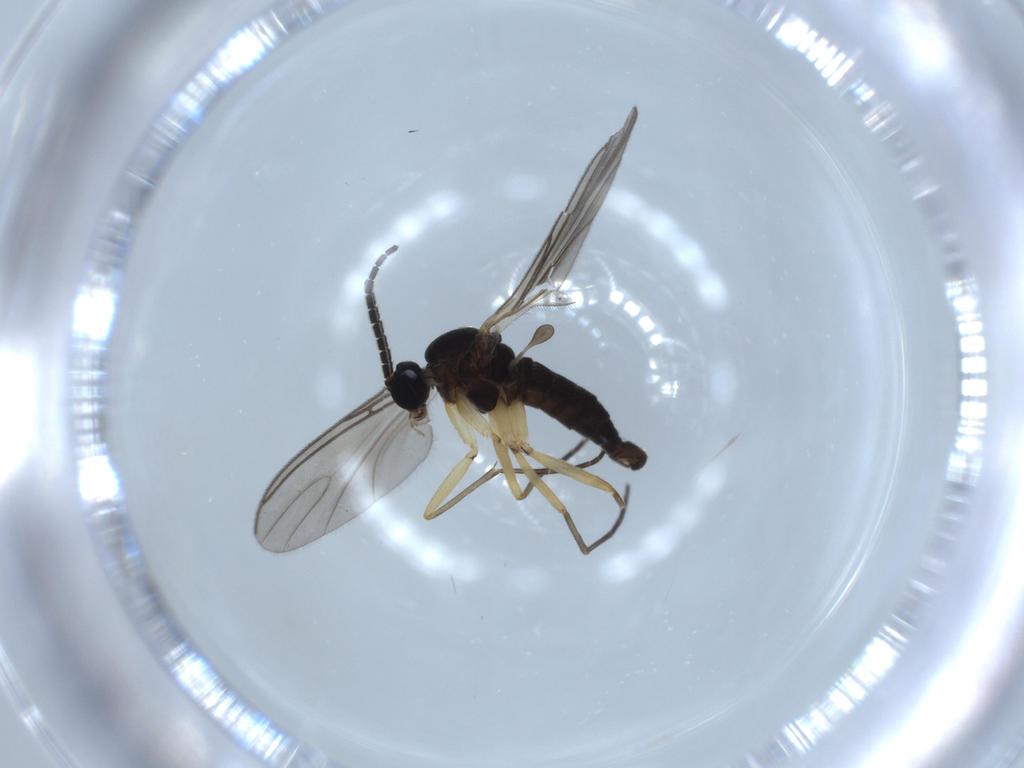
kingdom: Animalia
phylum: Arthropoda
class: Insecta
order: Diptera
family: Sciaridae
